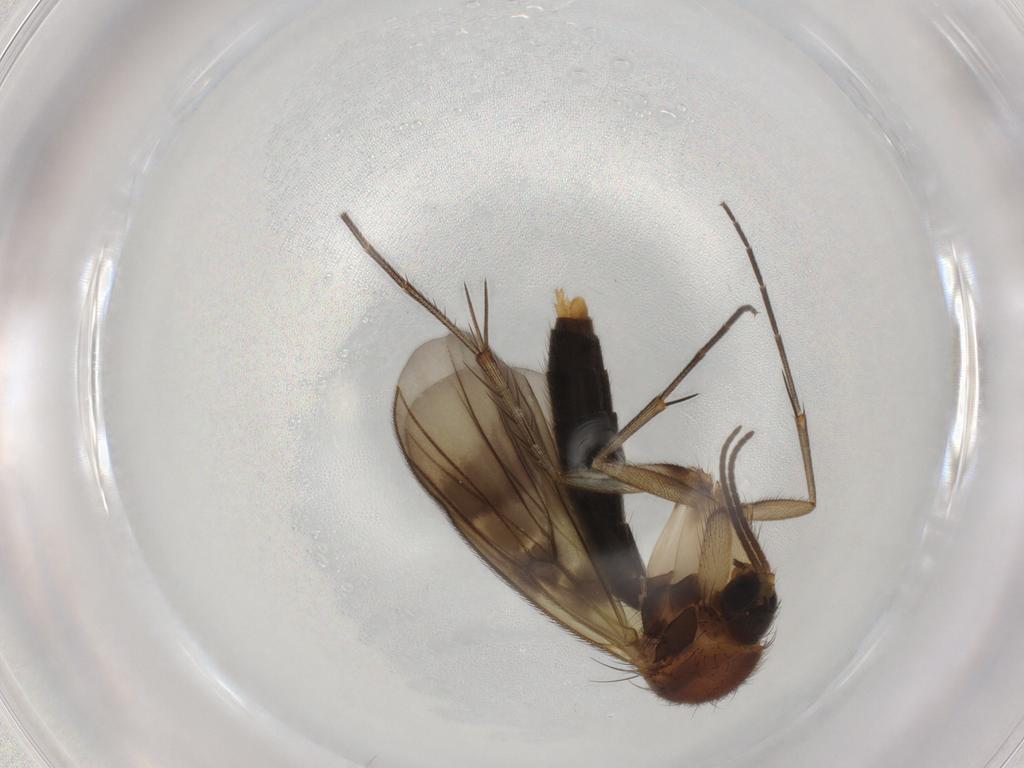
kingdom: Animalia
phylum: Arthropoda
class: Insecta
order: Diptera
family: Mycetophilidae
